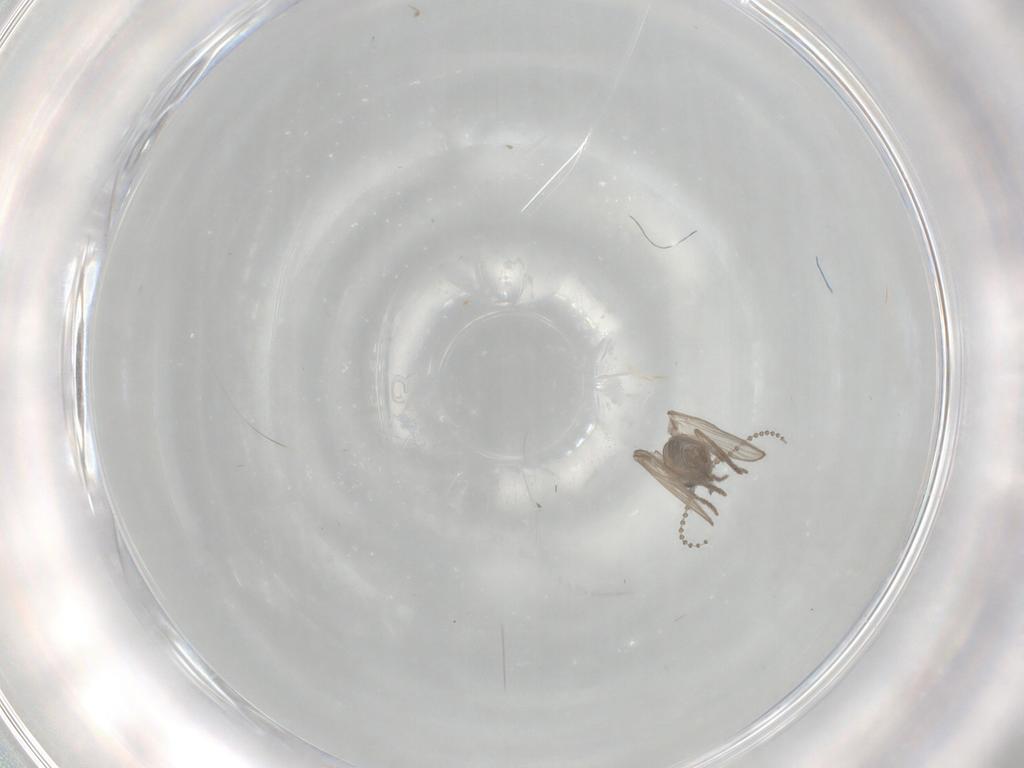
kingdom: Animalia
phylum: Arthropoda
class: Insecta
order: Diptera
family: Psychodidae
